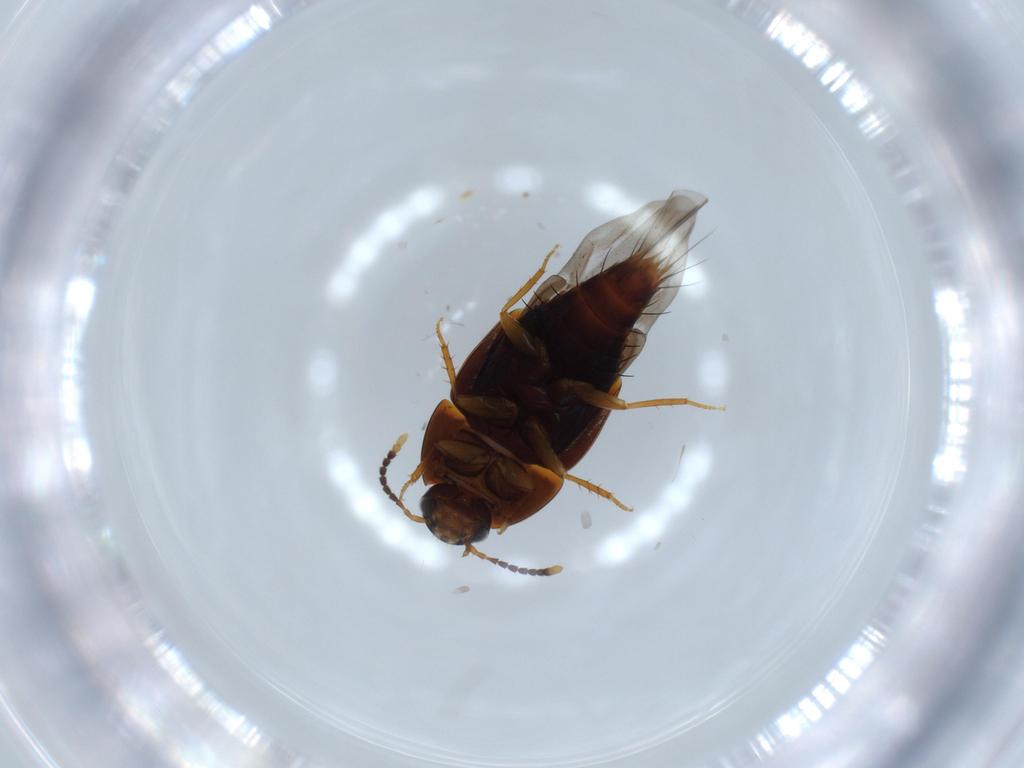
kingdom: Animalia
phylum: Arthropoda
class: Insecta
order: Coleoptera
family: Staphylinidae
